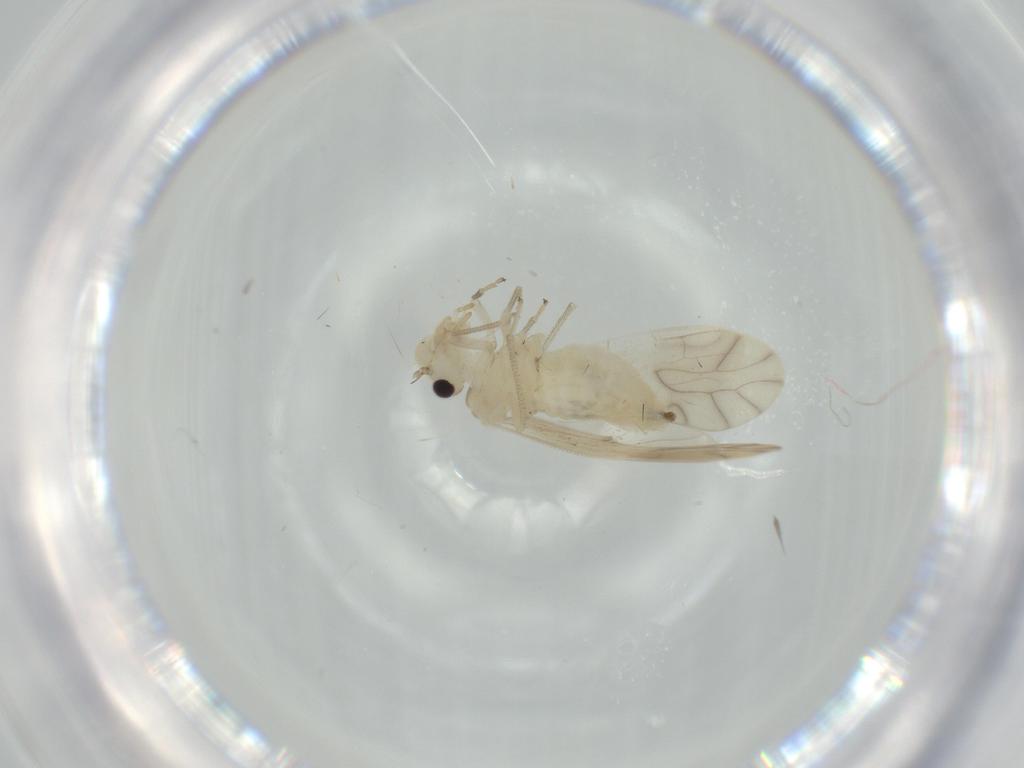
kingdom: Animalia
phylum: Arthropoda
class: Insecta
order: Psocodea
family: Caeciliusidae
